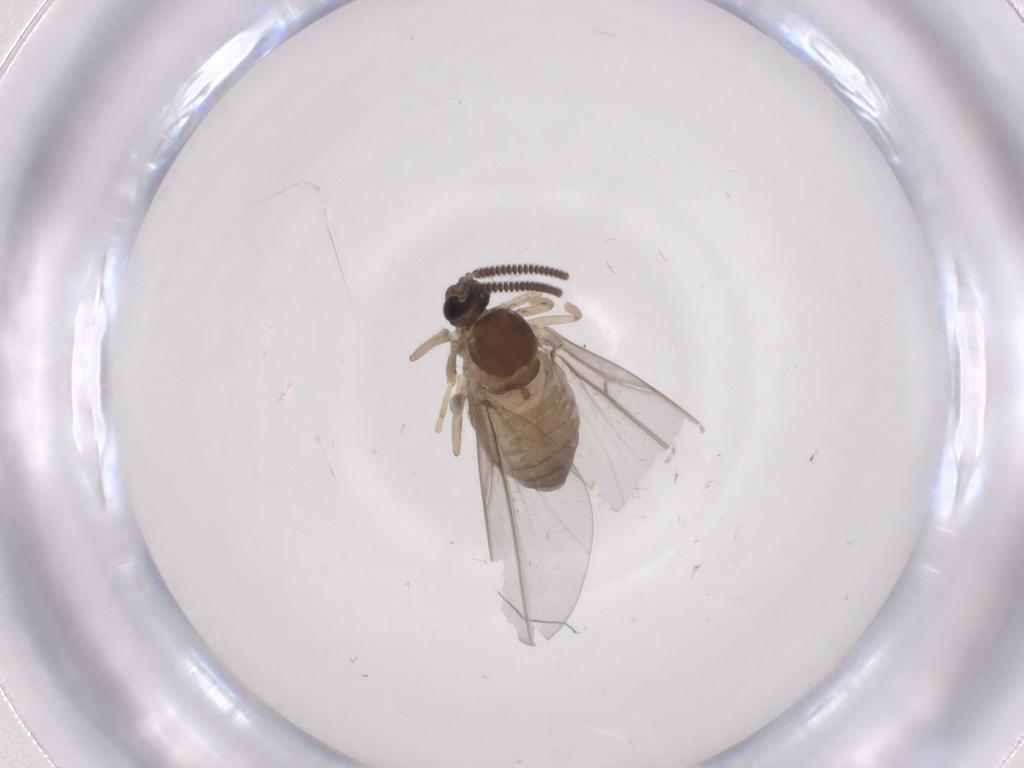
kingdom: Animalia
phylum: Arthropoda
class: Insecta
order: Diptera
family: Cecidomyiidae
